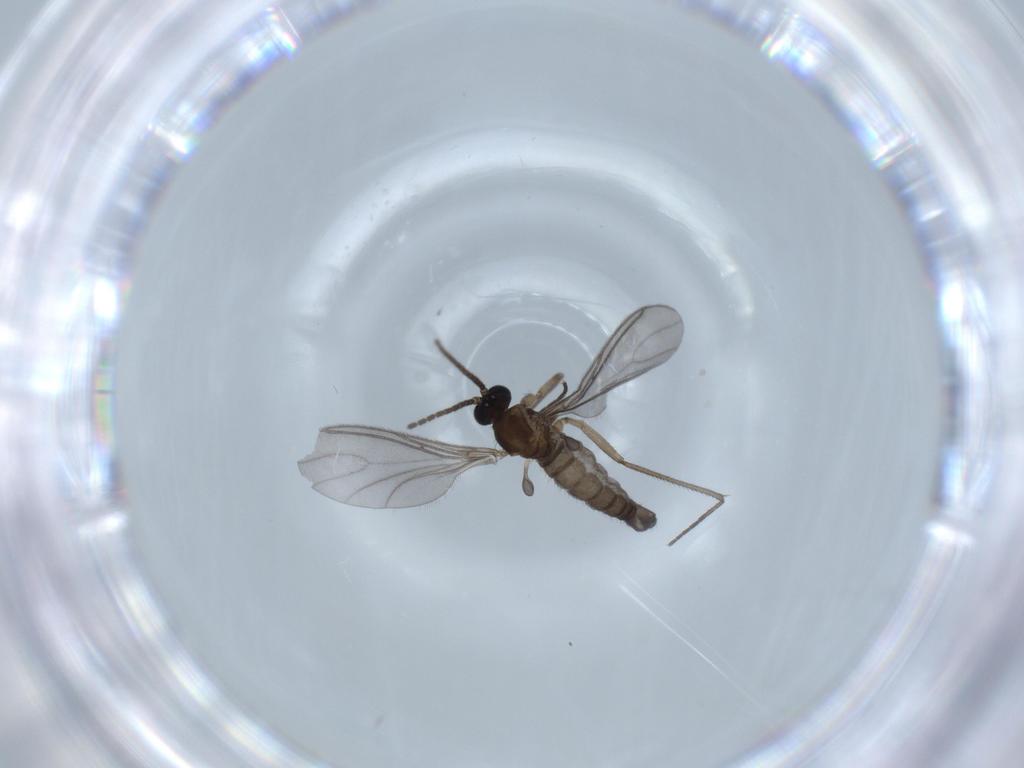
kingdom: Animalia
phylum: Arthropoda
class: Insecta
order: Diptera
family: Sciaridae
